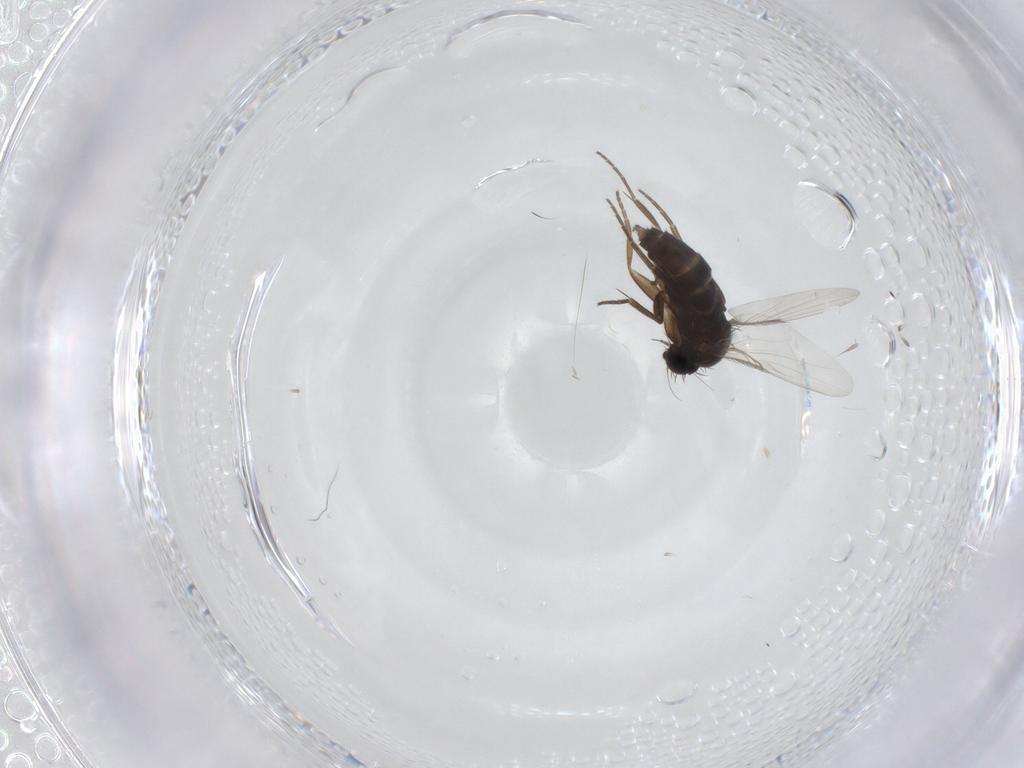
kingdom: Animalia
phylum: Arthropoda
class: Insecta
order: Diptera
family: Phoridae
